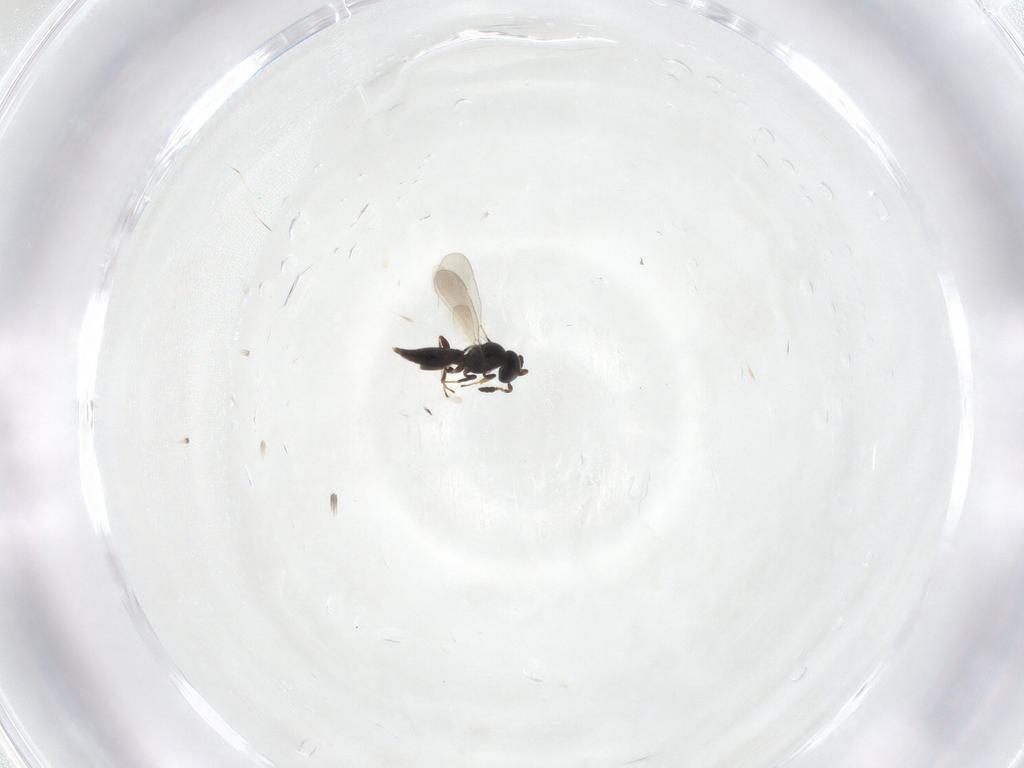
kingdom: Animalia
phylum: Arthropoda
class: Insecta
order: Hymenoptera
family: Platygastridae
